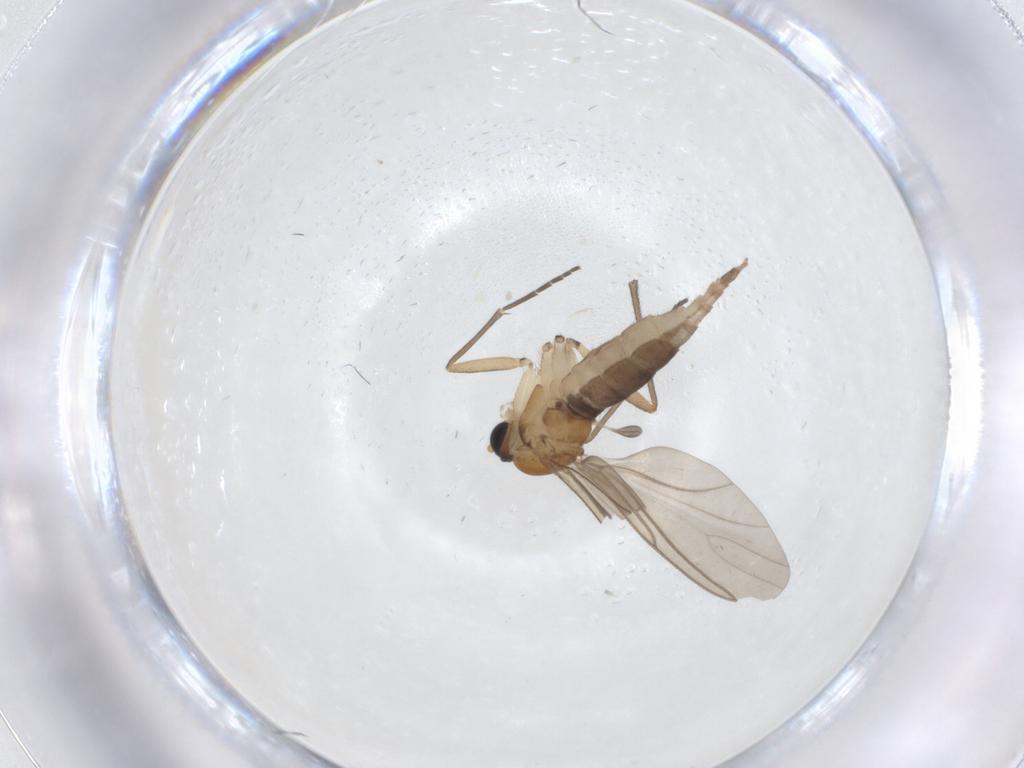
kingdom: Animalia
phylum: Arthropoda
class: Insecta
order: Diptera
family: Sciaridae
